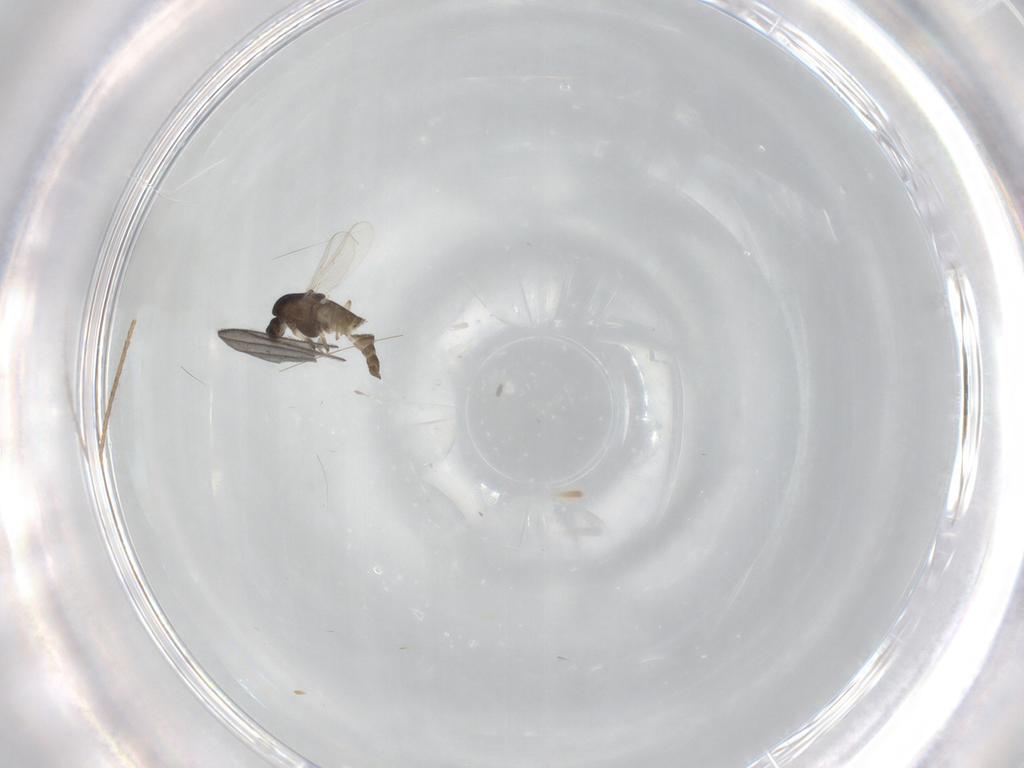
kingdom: Animalia
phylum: Arthropoda
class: Insecta
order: Diptera
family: Chironomidae
